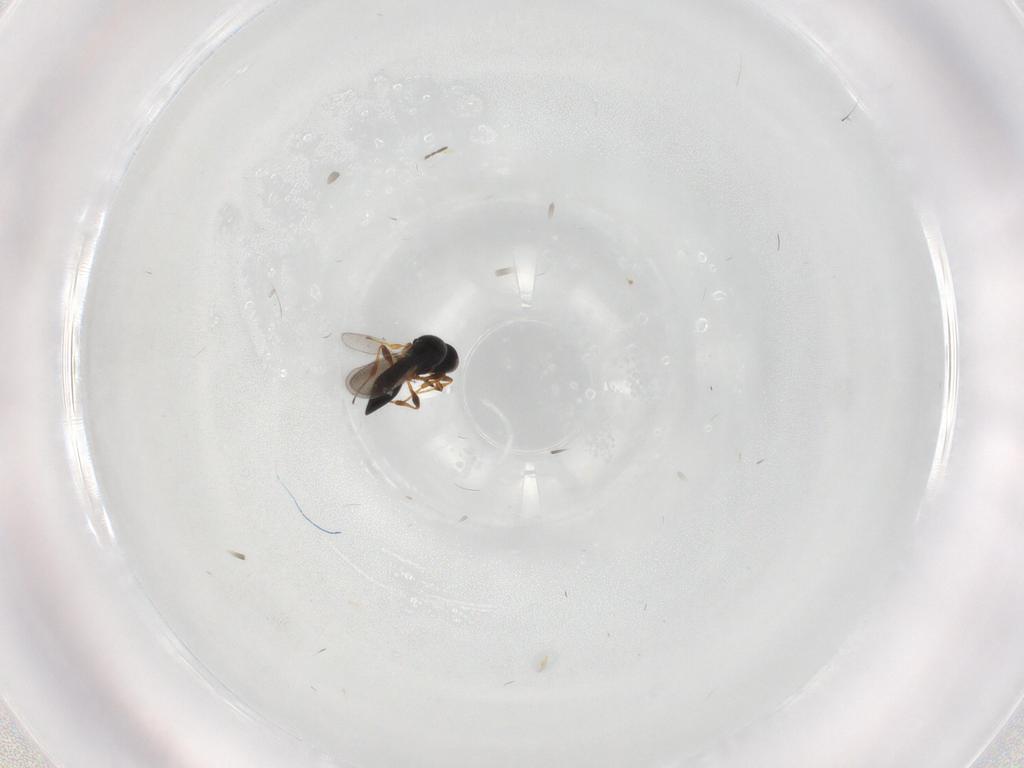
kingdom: Animalia
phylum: Arthropoda
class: Insecta
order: Hymenoptera
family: Platygastridae
